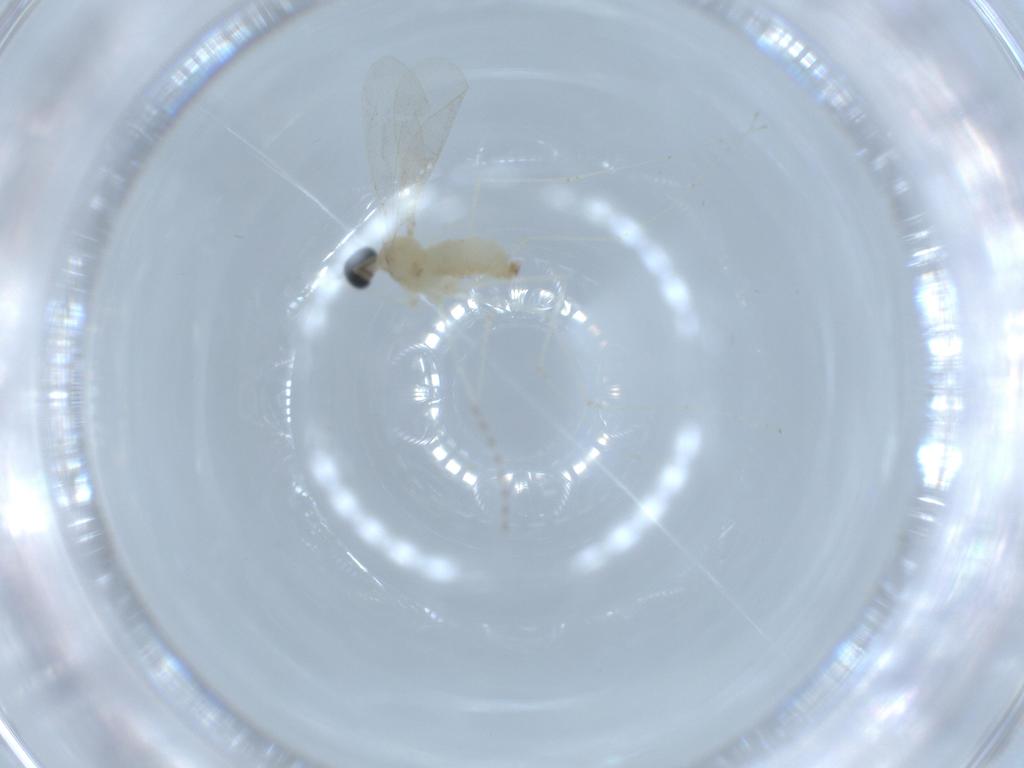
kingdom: Animalia
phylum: Arthropoda
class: Insecta
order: Diptera
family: Cecidomyiidae
